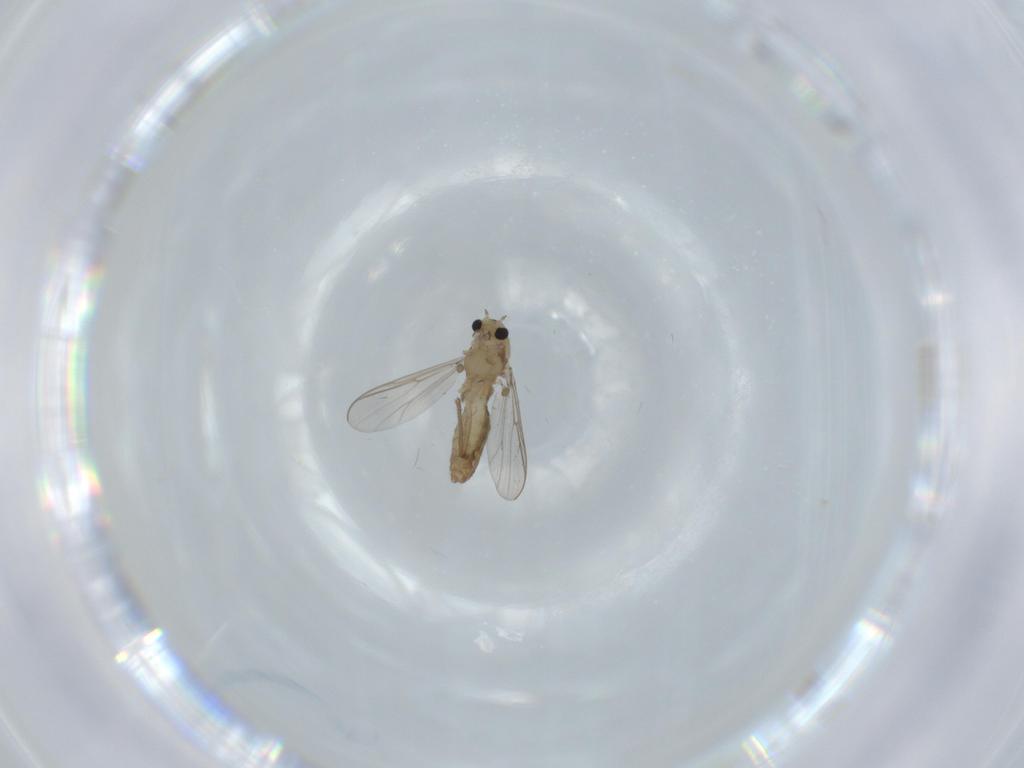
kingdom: Animalia
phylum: Arthropoda
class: Insecta
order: Diptera
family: Chironomidae
